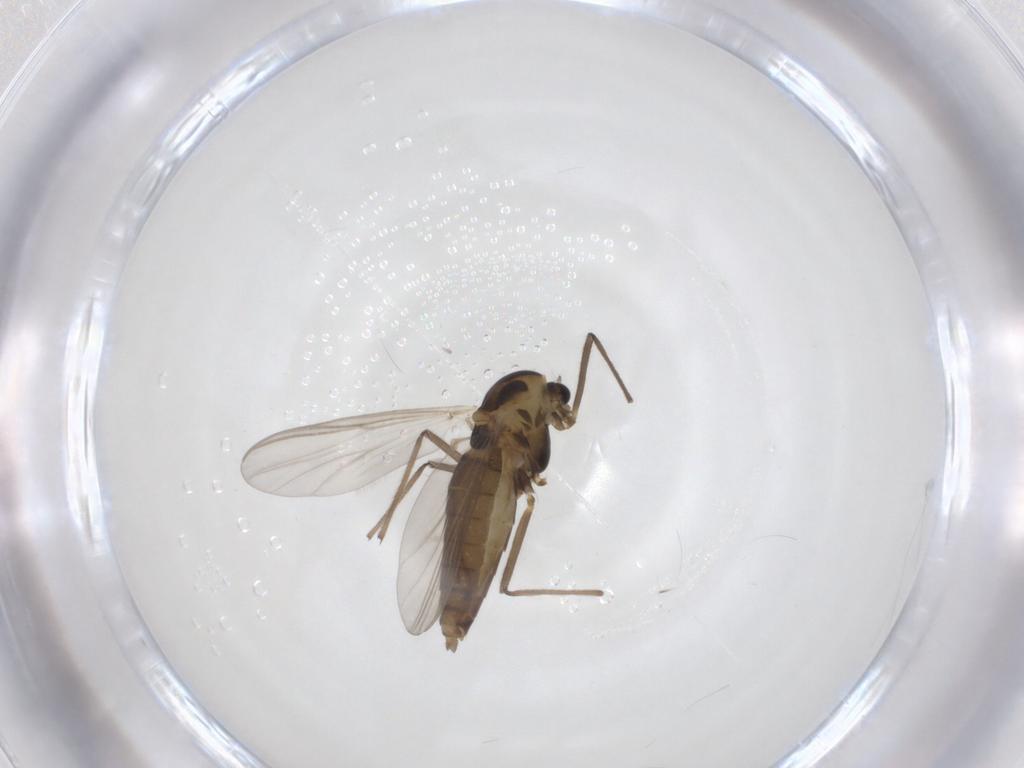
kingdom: Animalia
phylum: Arthropoda
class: Insecta
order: Diptera
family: Chironomidae
